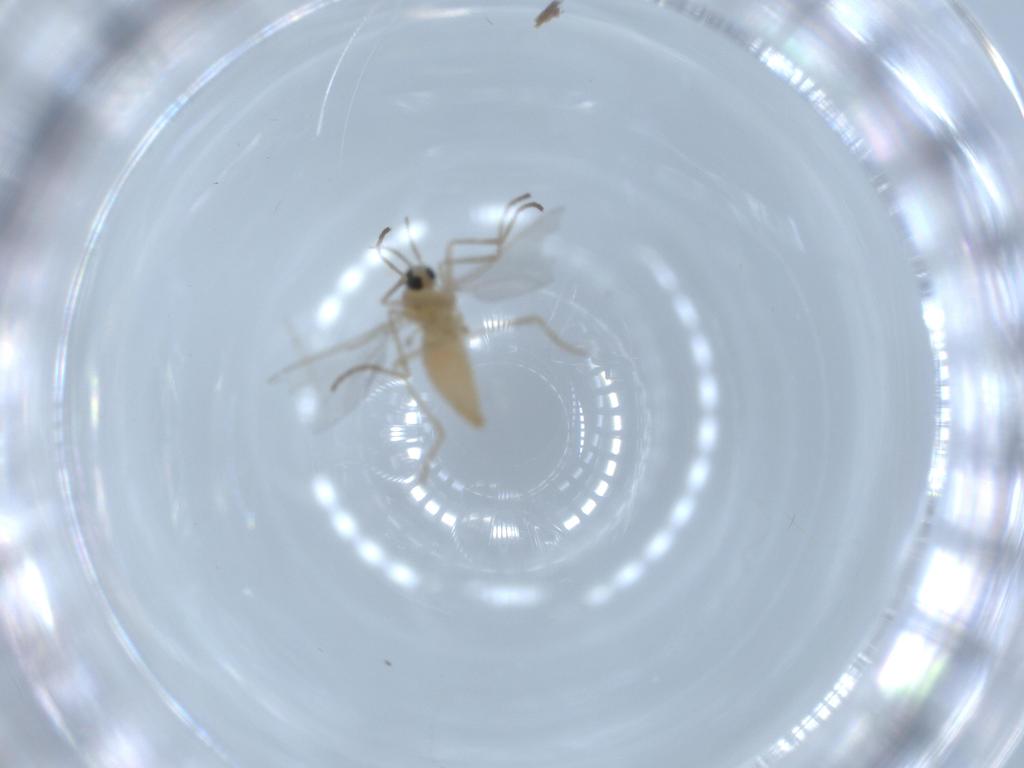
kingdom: Animalia
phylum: Arthropoda
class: Insecta
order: Diptera
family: Cecidomyiidae
